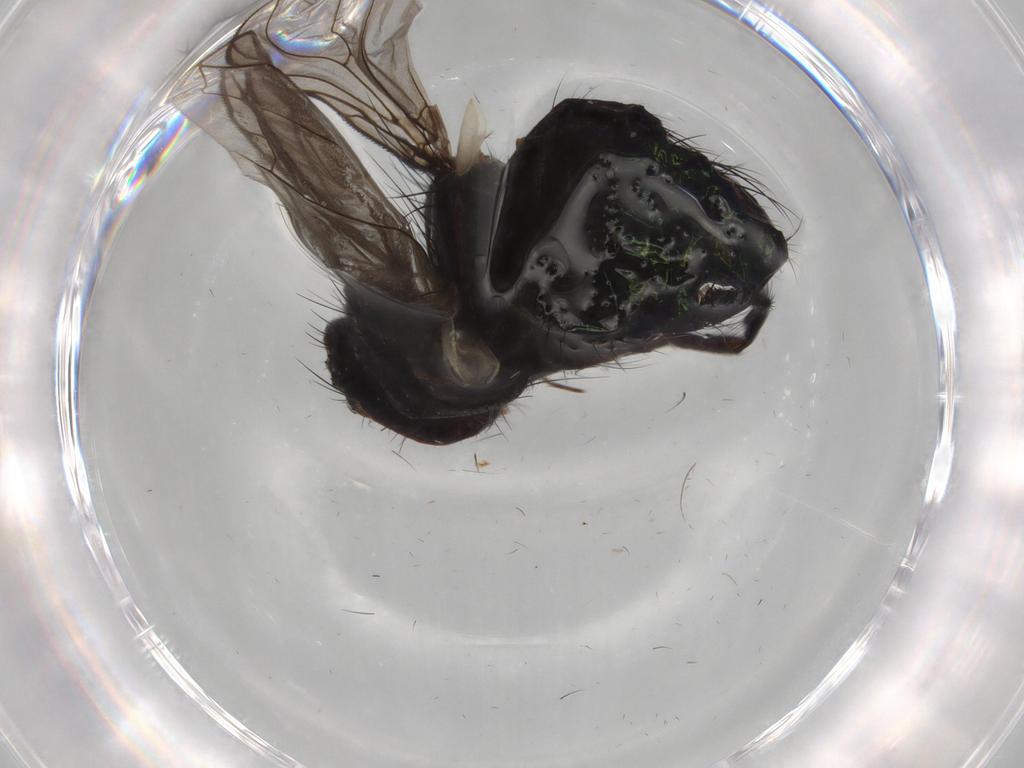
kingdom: Animalia
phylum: Arthropoda
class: Insecta
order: Diptera
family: Calliphoridae
